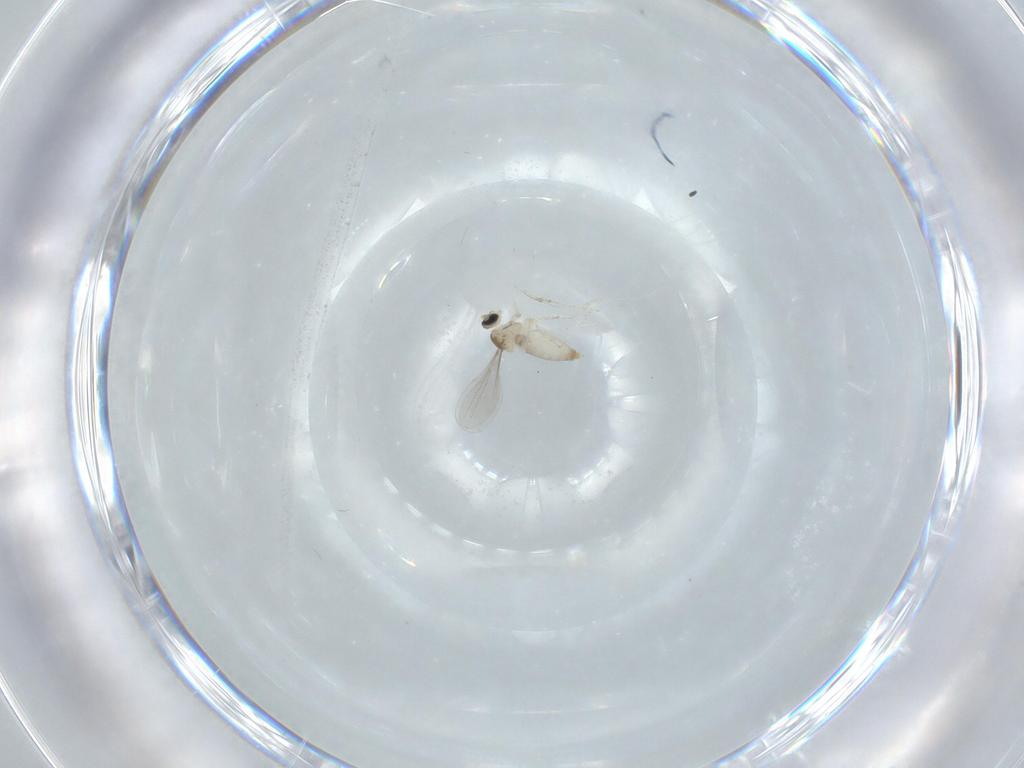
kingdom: Animalia
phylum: Arthropoda
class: Insecta
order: Diptera
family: Cecidomyiidae
